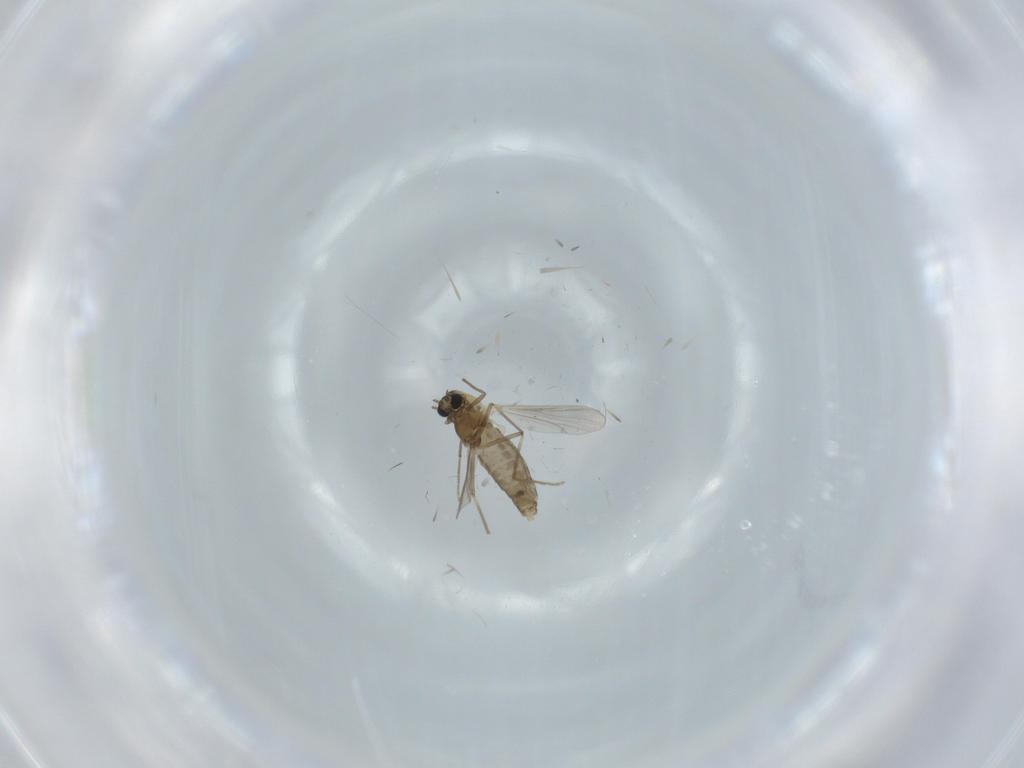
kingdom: Animalia
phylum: Arthropoda
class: Insecta
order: Diptera
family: Chironomidae
